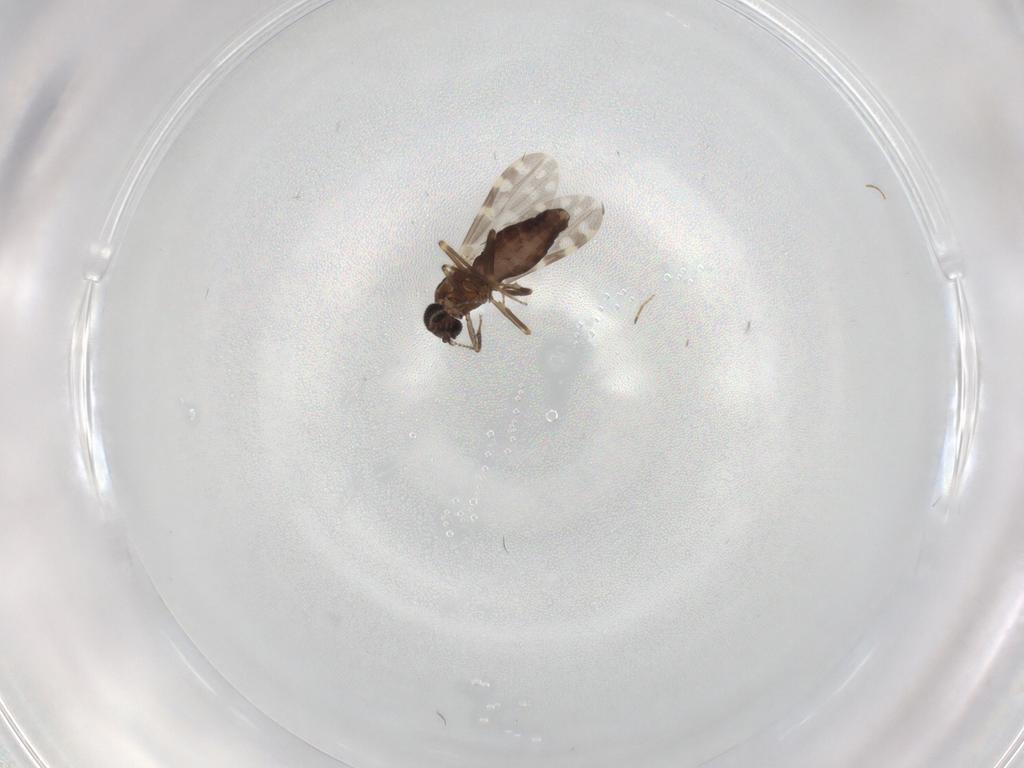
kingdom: Animalia
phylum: Arthropoda
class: Insecta
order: Diptera
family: Ceratopogonidae
